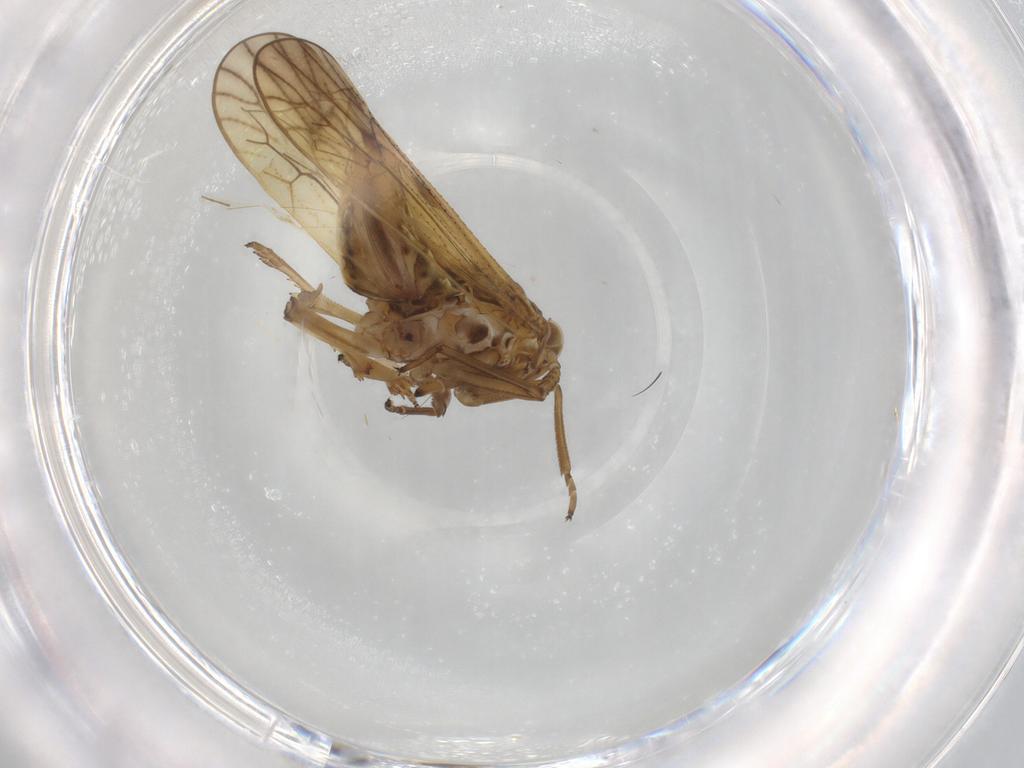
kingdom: Animalia
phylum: Arthropoda
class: Insecta
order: Hemiptera
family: Delphacidae
